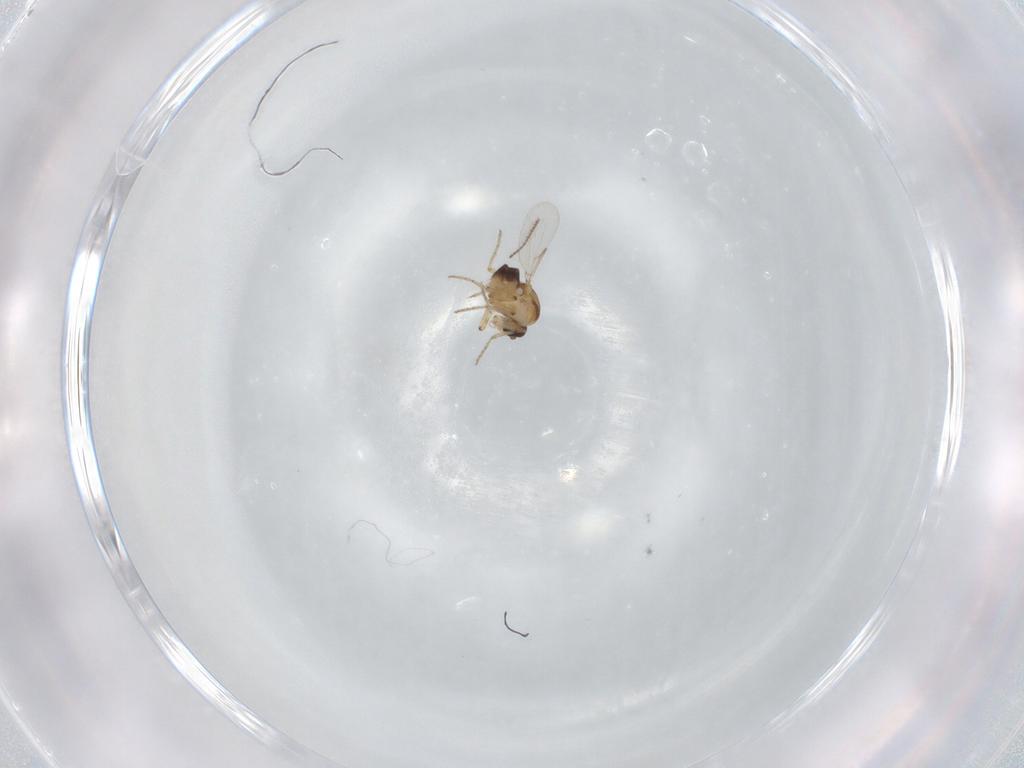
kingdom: Animalia
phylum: Arthropoda
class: Insecta
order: Diptera
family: Ceratopogonidae
